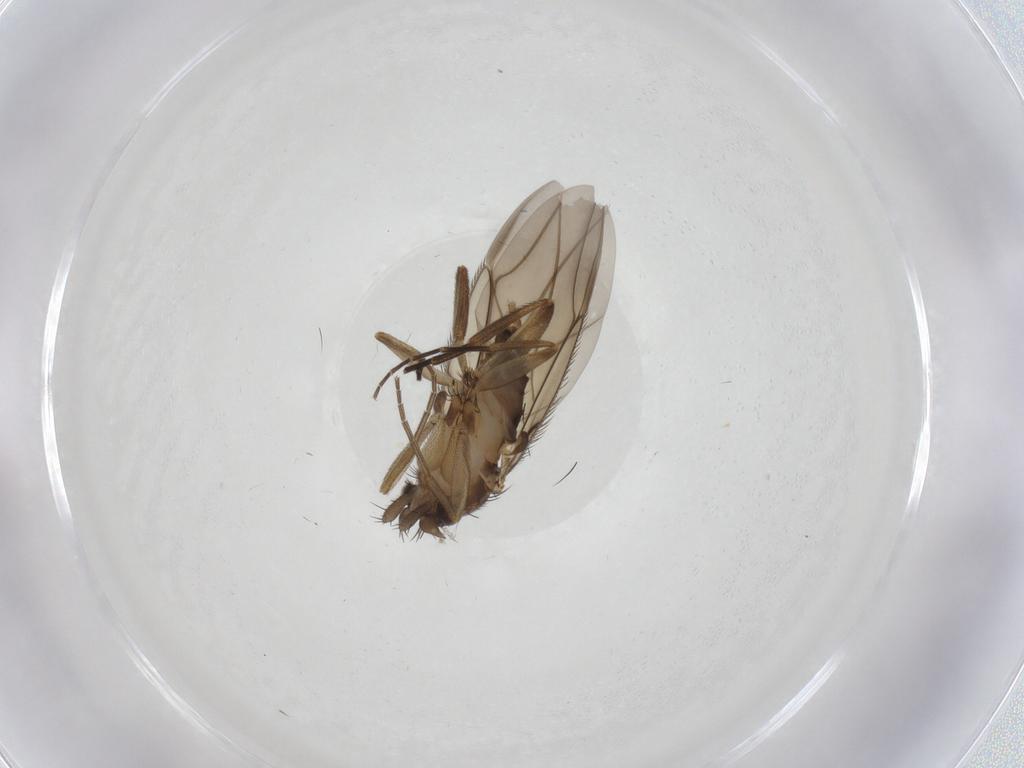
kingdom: Animalia
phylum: Arthropoda
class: Insecta
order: Diptera
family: Phoridae
